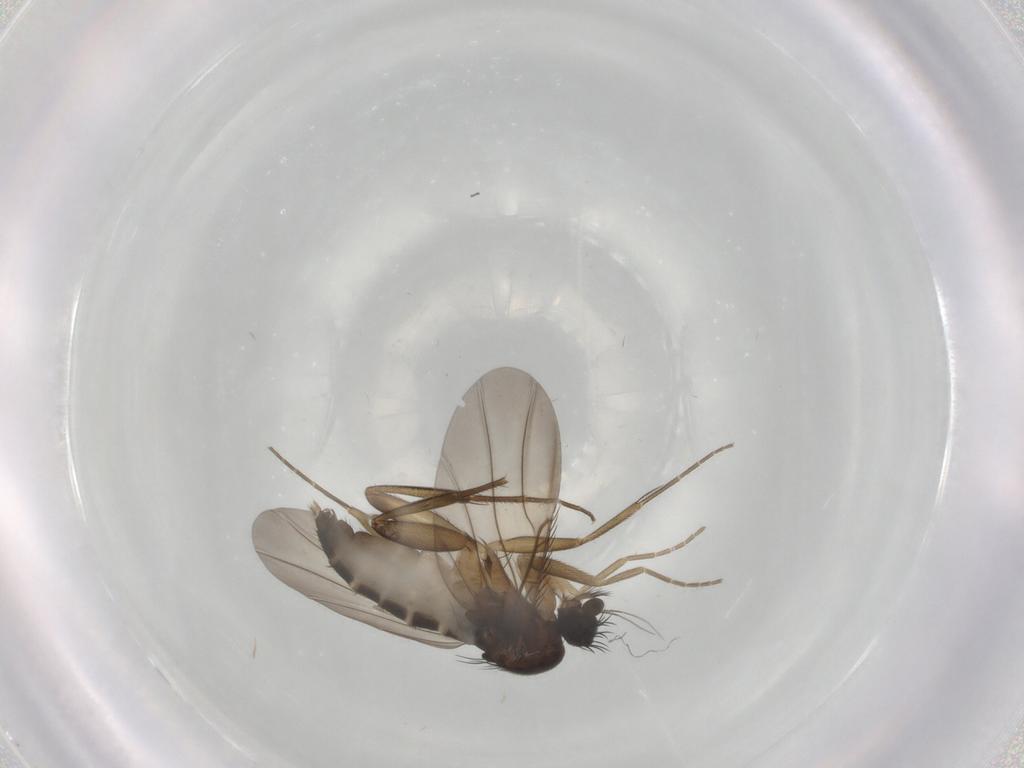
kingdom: Animalia
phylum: Arthropoda
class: Insecta
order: Diptera
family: Phoridae
